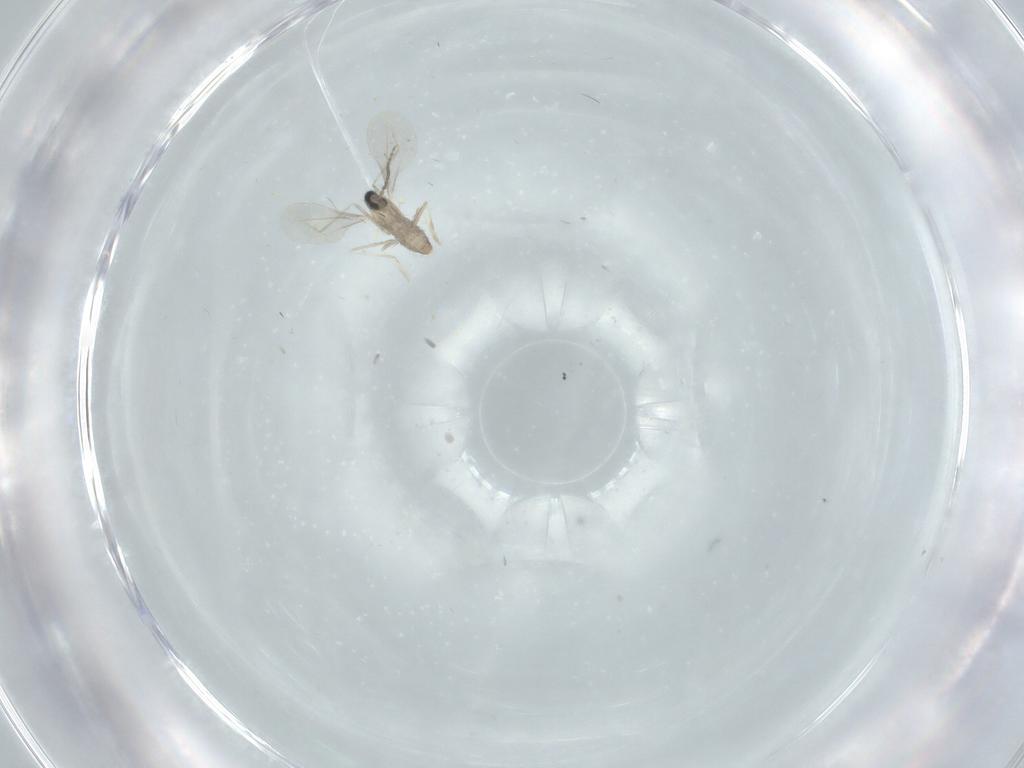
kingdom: Animalia
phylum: Arthropoda
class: Insecta
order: Diptera
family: Cecidomyiidae
